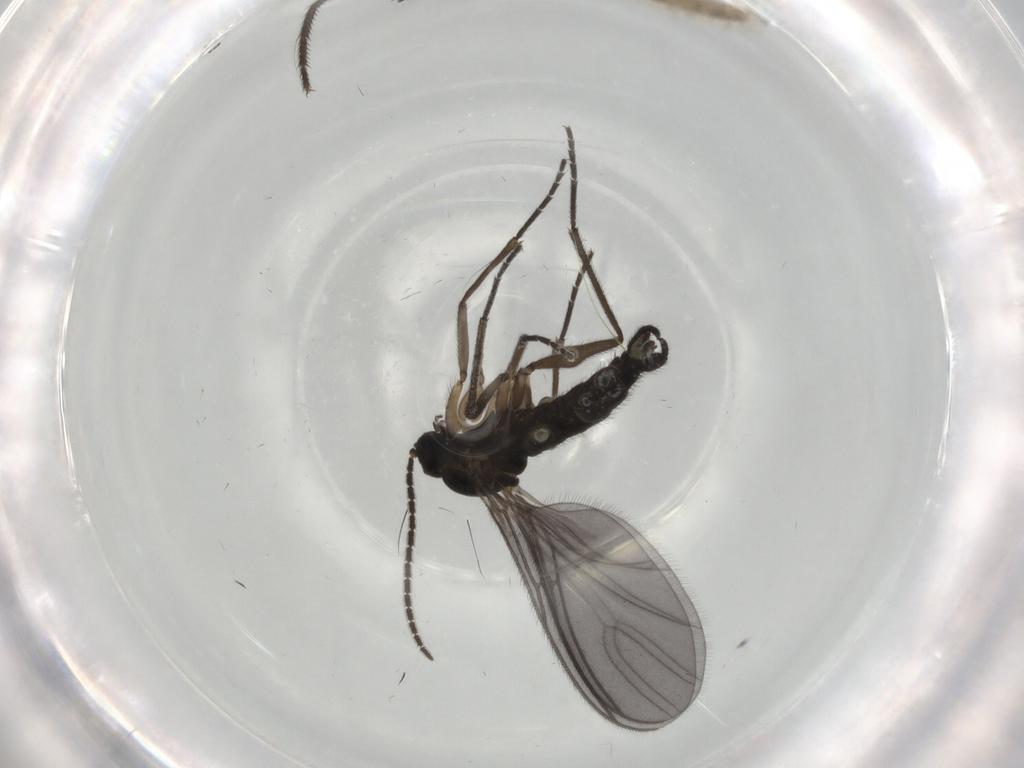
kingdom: Animalia
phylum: Arthropoda
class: Insecta
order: Diptera
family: Sciaridae
